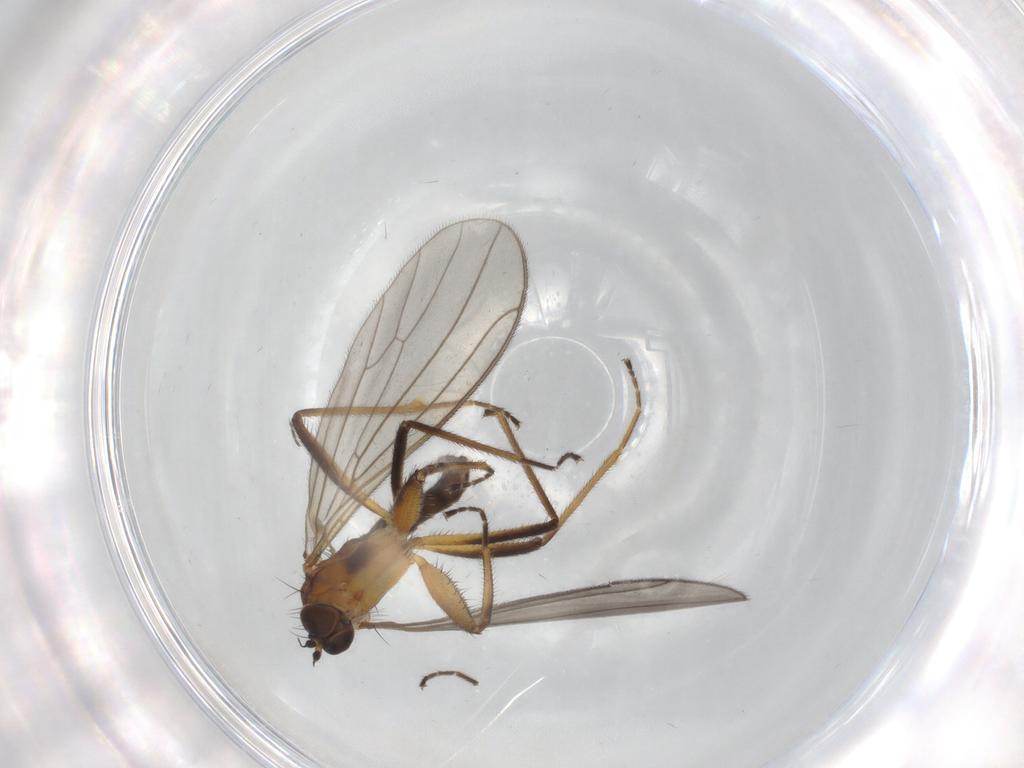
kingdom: Animalia
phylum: Arthropoda
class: Insecta
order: Diptera
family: Empididae
